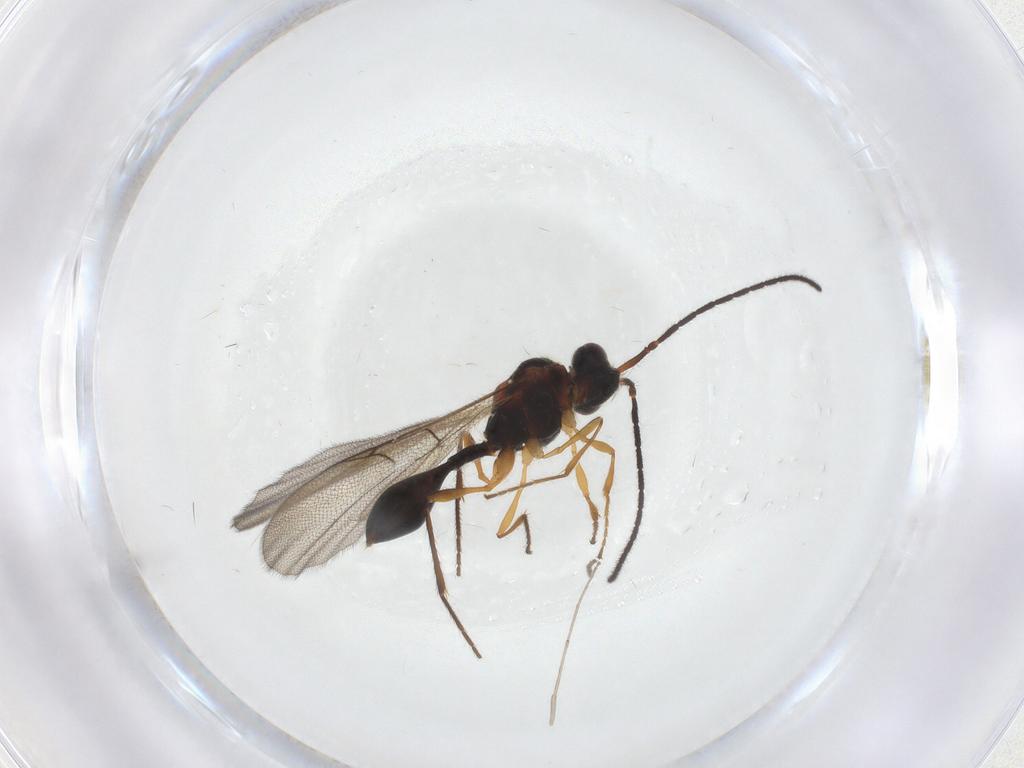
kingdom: Animalia
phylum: Arthropoda
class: Insecta
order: Hymenoptera
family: Diapriidae
